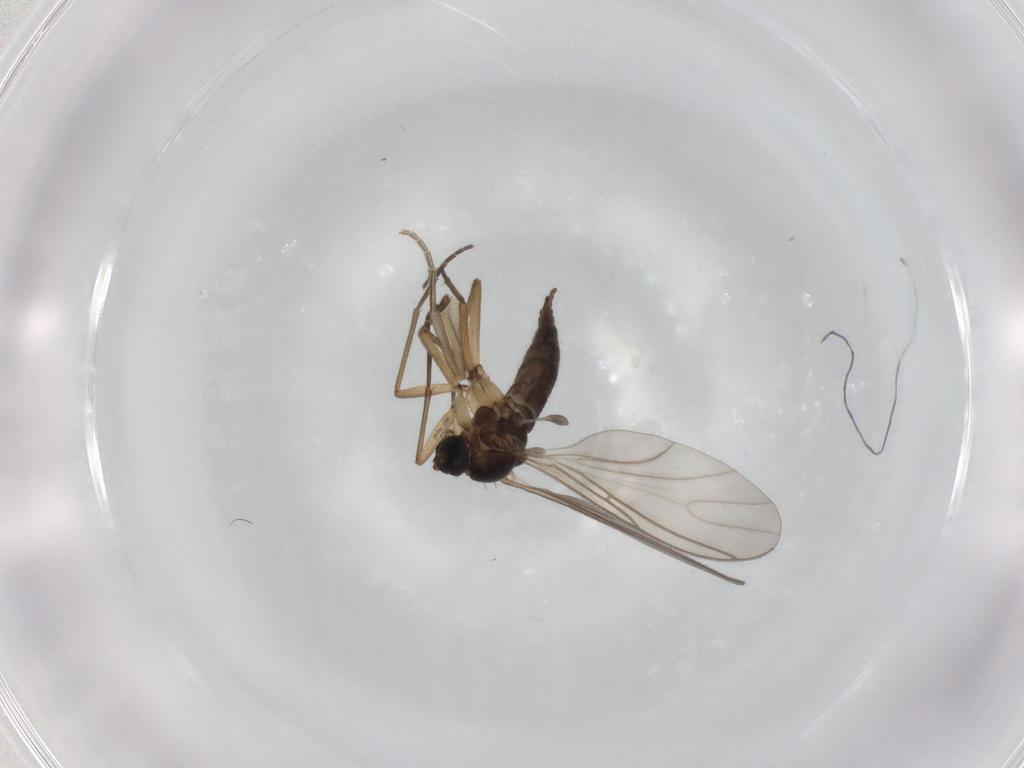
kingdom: Animalia
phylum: Arthropoda
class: Insecta
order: Diptera
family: Sciaridae
